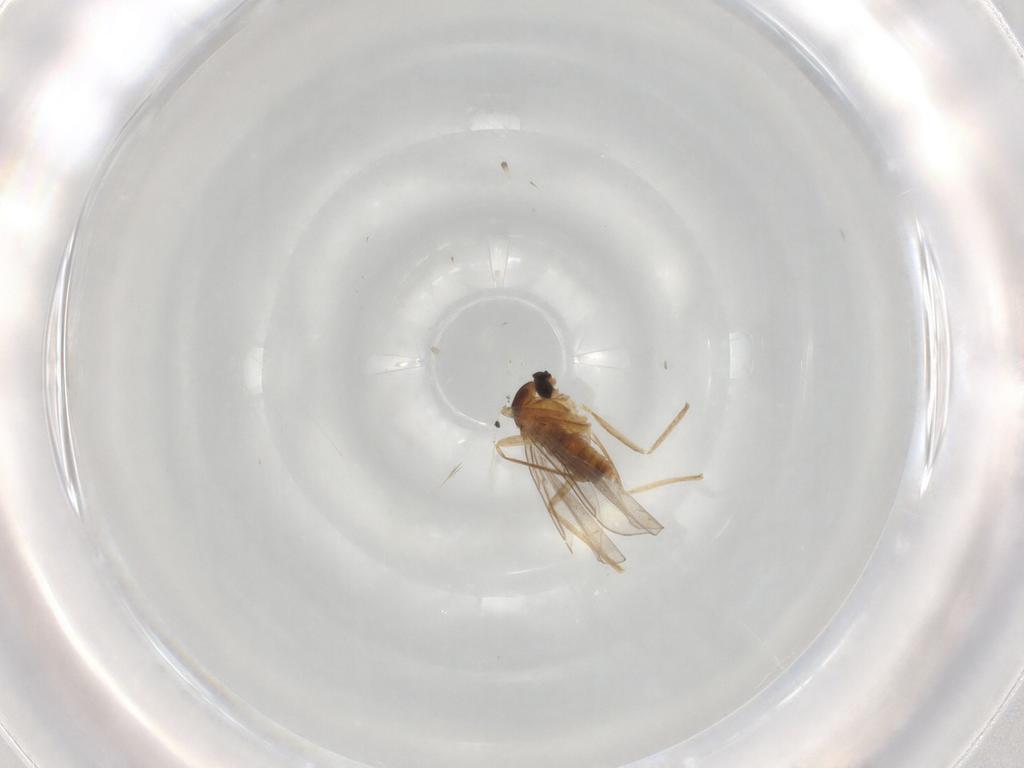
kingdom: Animalia
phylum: Arthropoda
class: Insecta
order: Diptera
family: Cecidomyiidae
